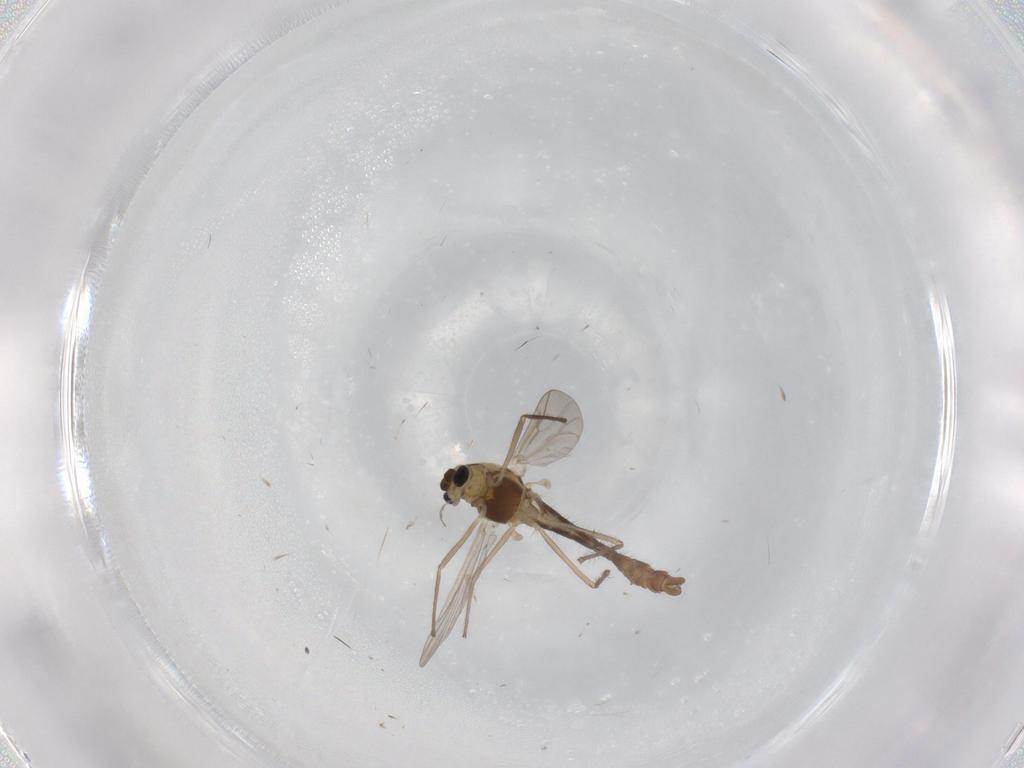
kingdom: Animalia
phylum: Arthropoda
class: Insecta
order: Diptera
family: Chironomidae
